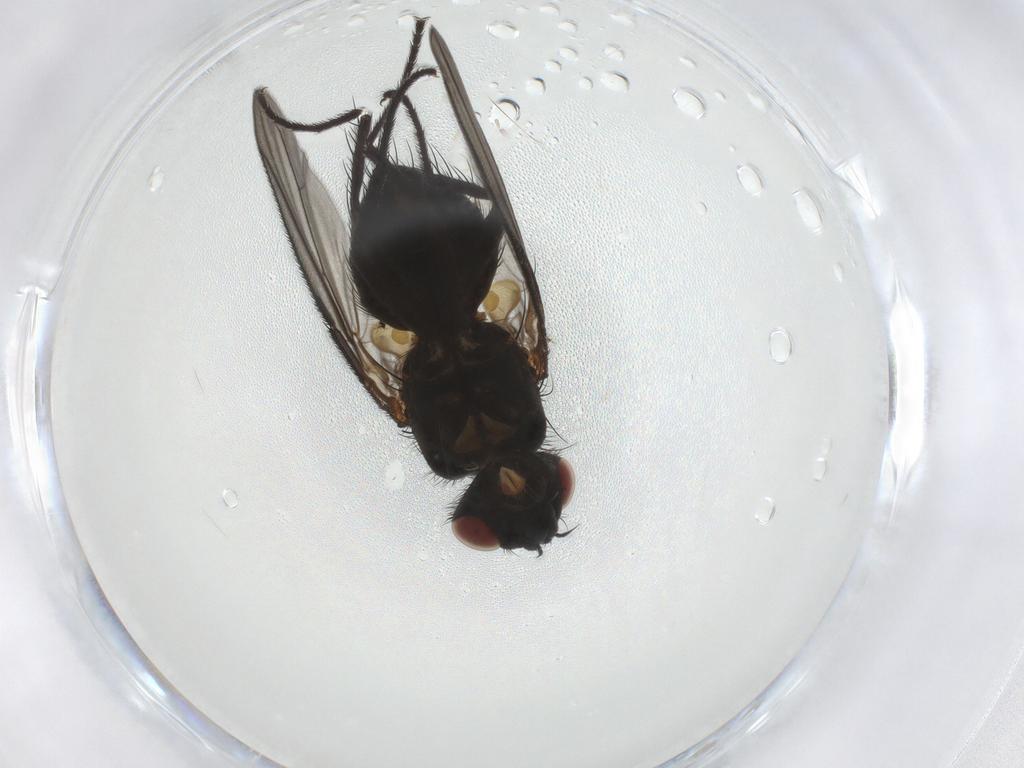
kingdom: Animalia
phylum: Arthropoda
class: Insecta
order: Diptera
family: Tachinidae
